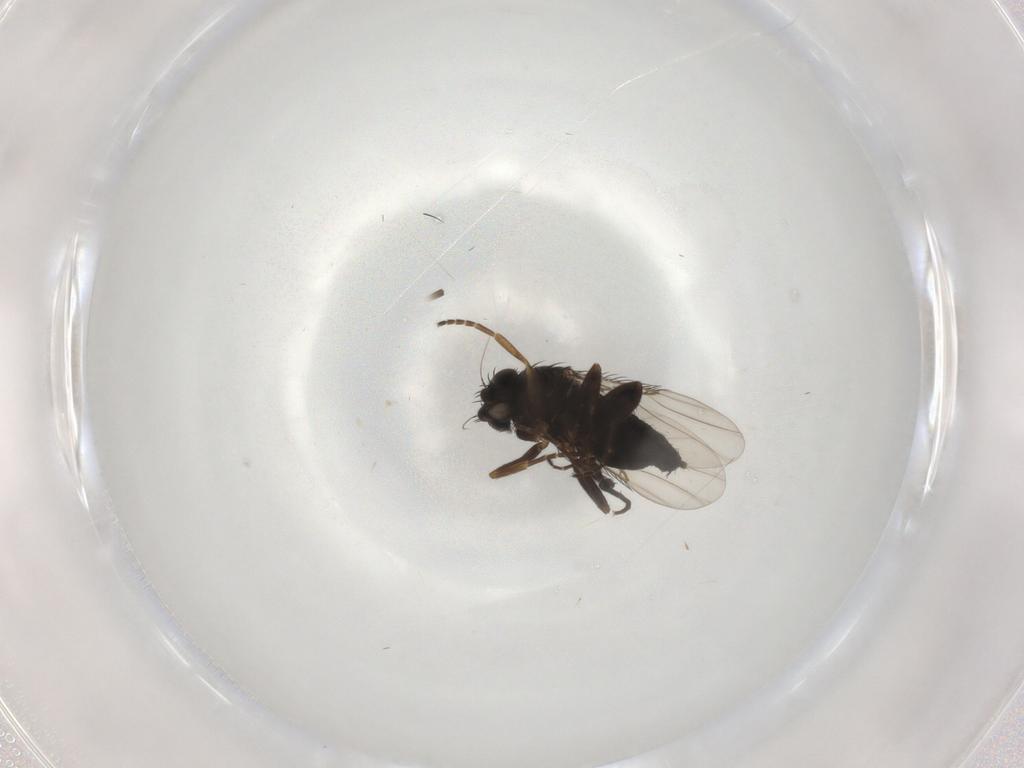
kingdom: Animalia
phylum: Arthropoda
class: Insecta
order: Diptera
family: Phoridae
